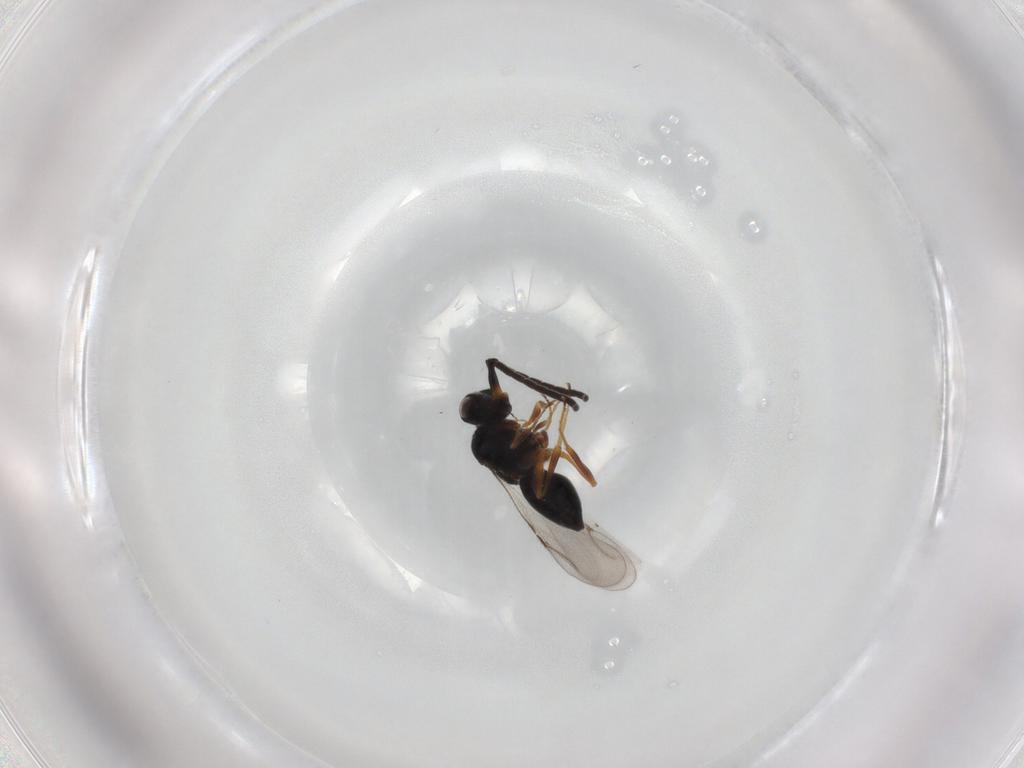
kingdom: Animalia
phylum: Arthropoda
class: Insecta
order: Hymenoptera
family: Ceraphronidae
